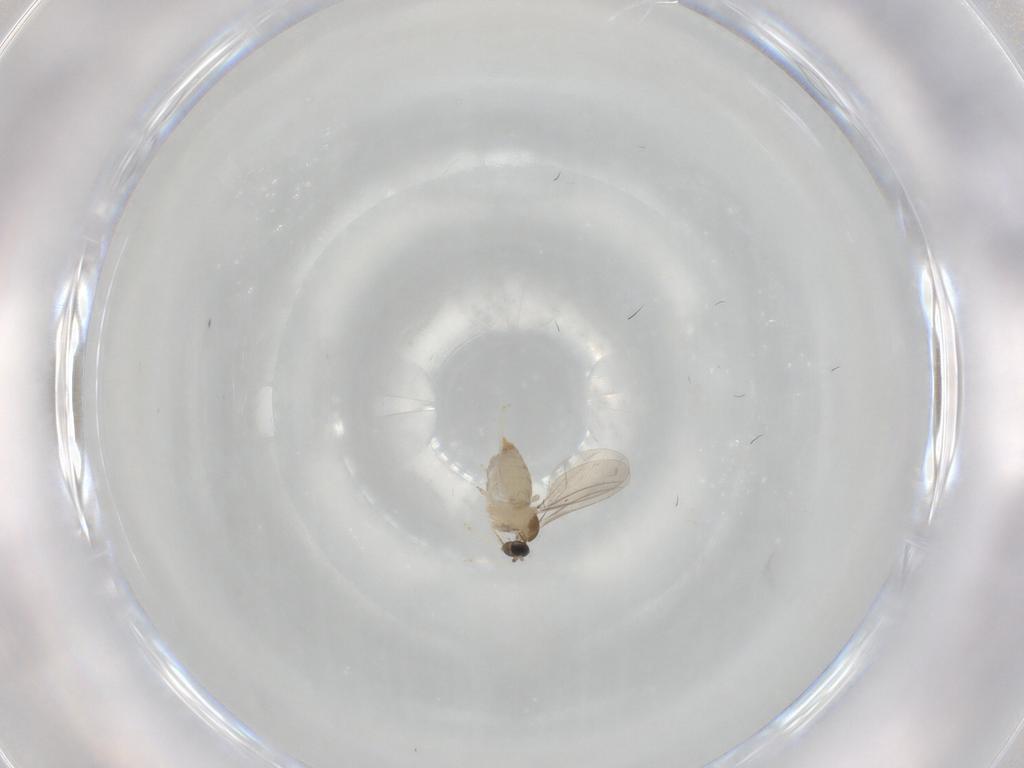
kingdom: Animalia
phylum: Arthropoda
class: Insecta
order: Diptera
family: Cecidomyiidae
